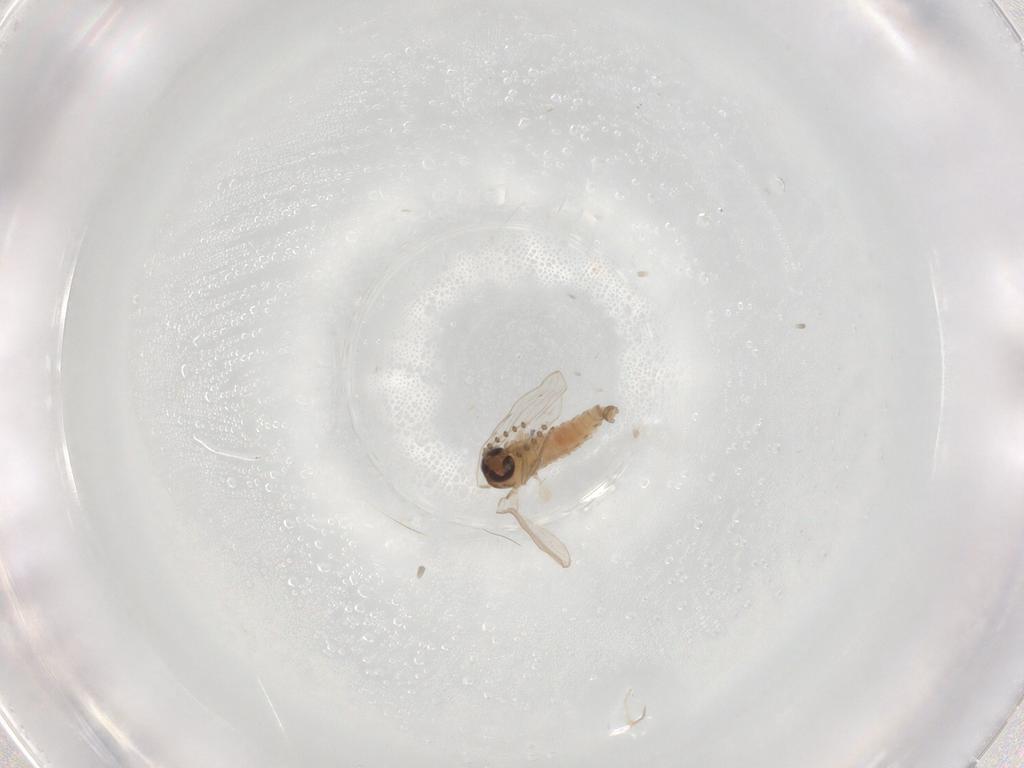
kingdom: Animalia
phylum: Arthropoda
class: Insecta
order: Diptera
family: Psychodidae
